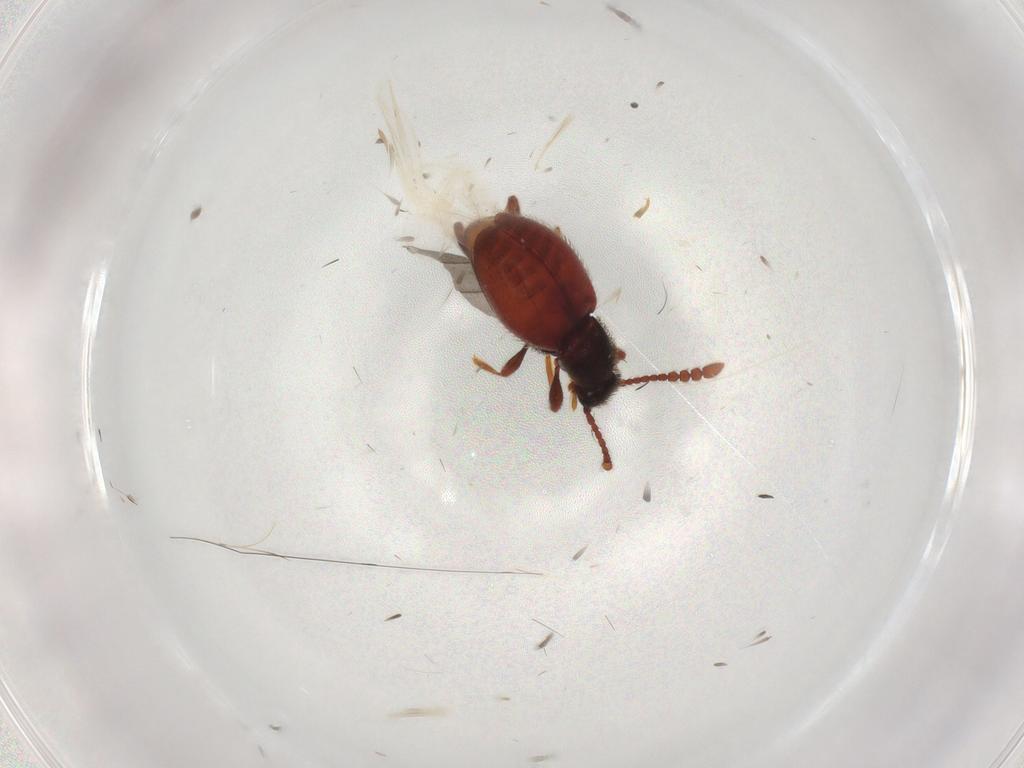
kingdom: Animalia
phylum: Arthropoda
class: Insecta
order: Coleoptera
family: Staphylinidae
